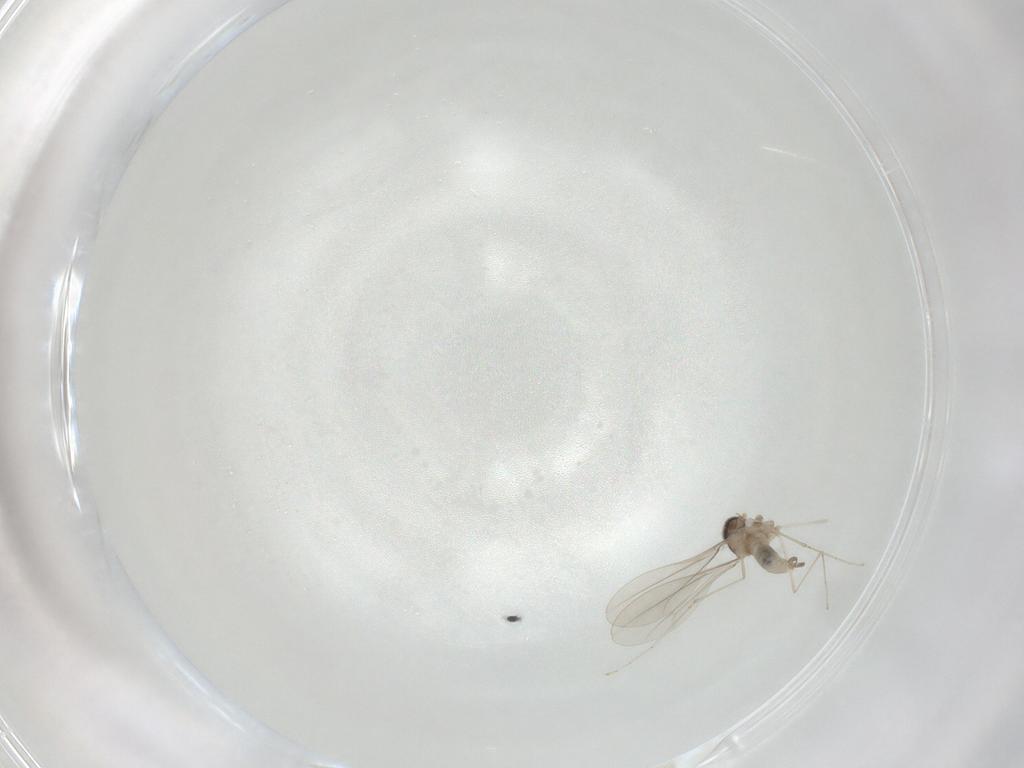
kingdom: Animalia
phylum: Arthropoda
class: Insecta
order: Diptera
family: Cecidomyiidae
